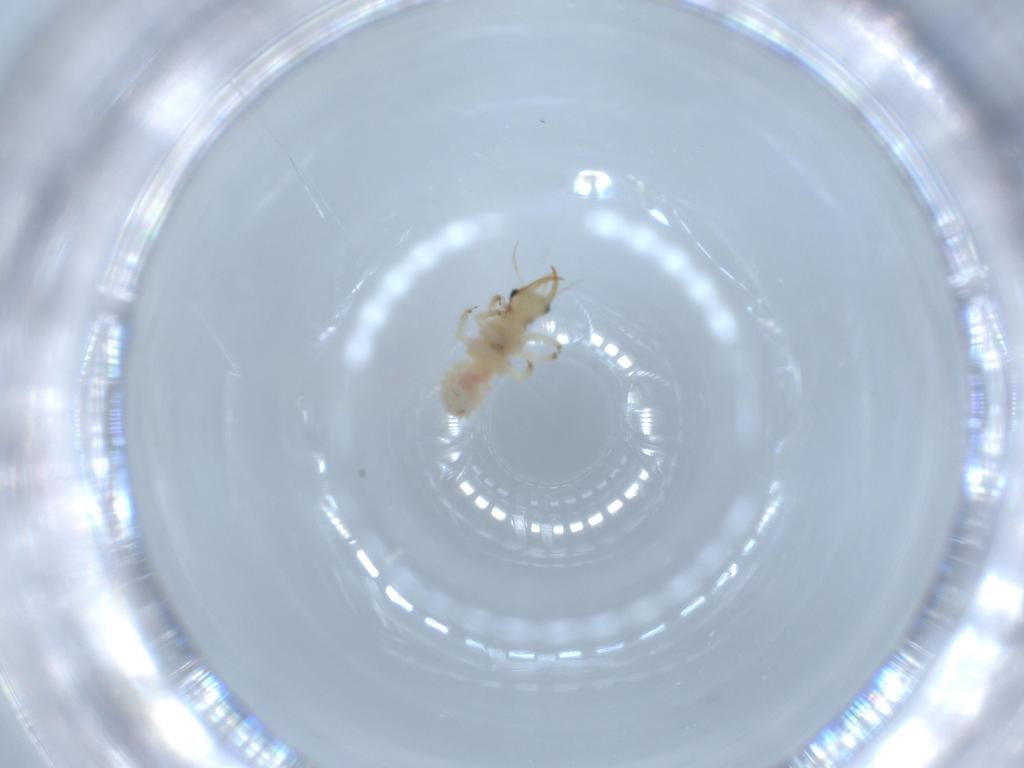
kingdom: Animalia
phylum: Arthropoda
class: Insecta
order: Neuroptera
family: Chrysopidae
